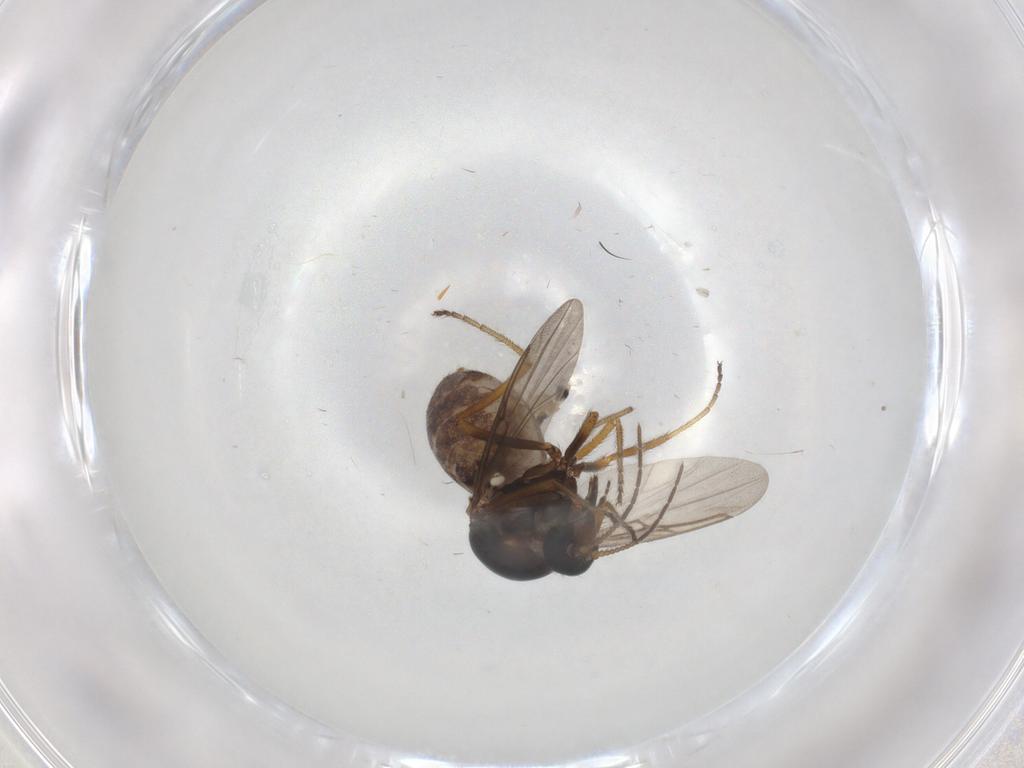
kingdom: Animalia
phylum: Arthropoda
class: Insecta
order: Diptera
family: Ceratopogonidae
